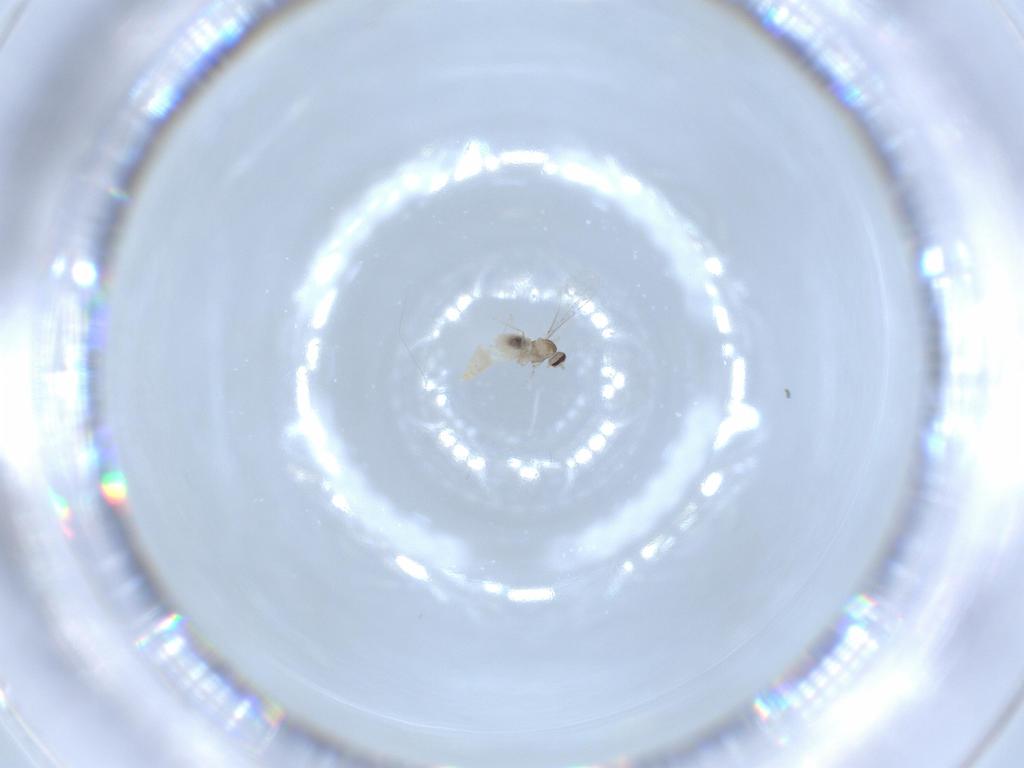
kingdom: Animalia
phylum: Arthropoda
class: Insecta
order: Diptera
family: Cecidomyiidae
